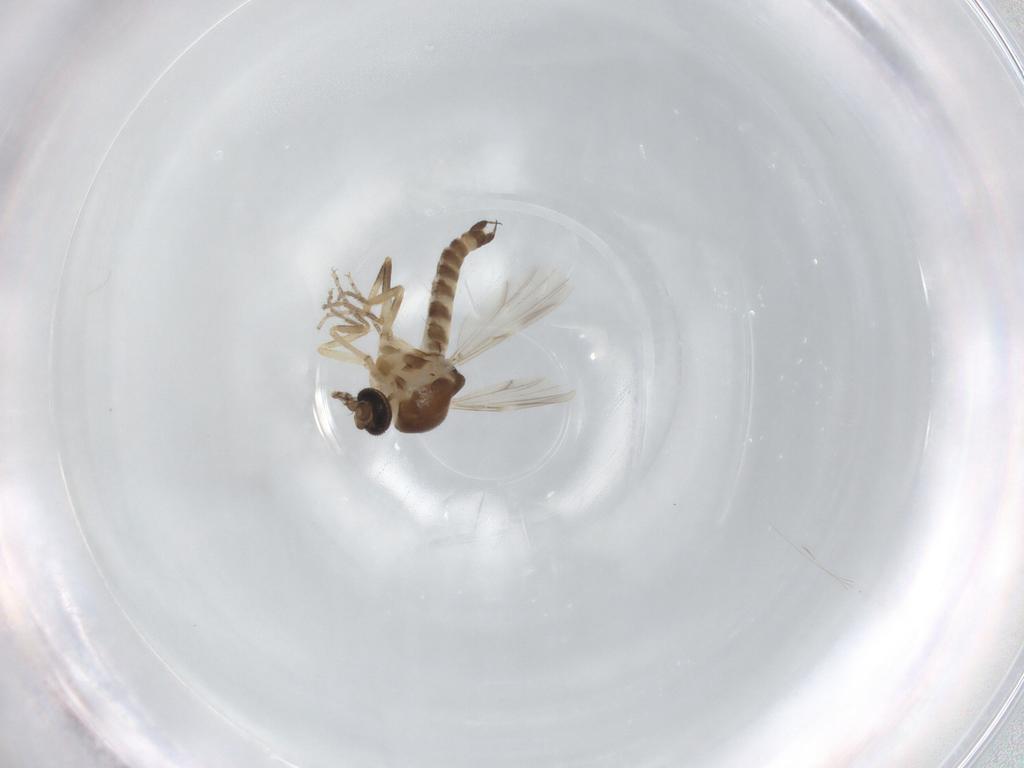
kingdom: Animalia
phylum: Arthropoda
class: Insecta
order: Diptera
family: Ceratopogonidae
